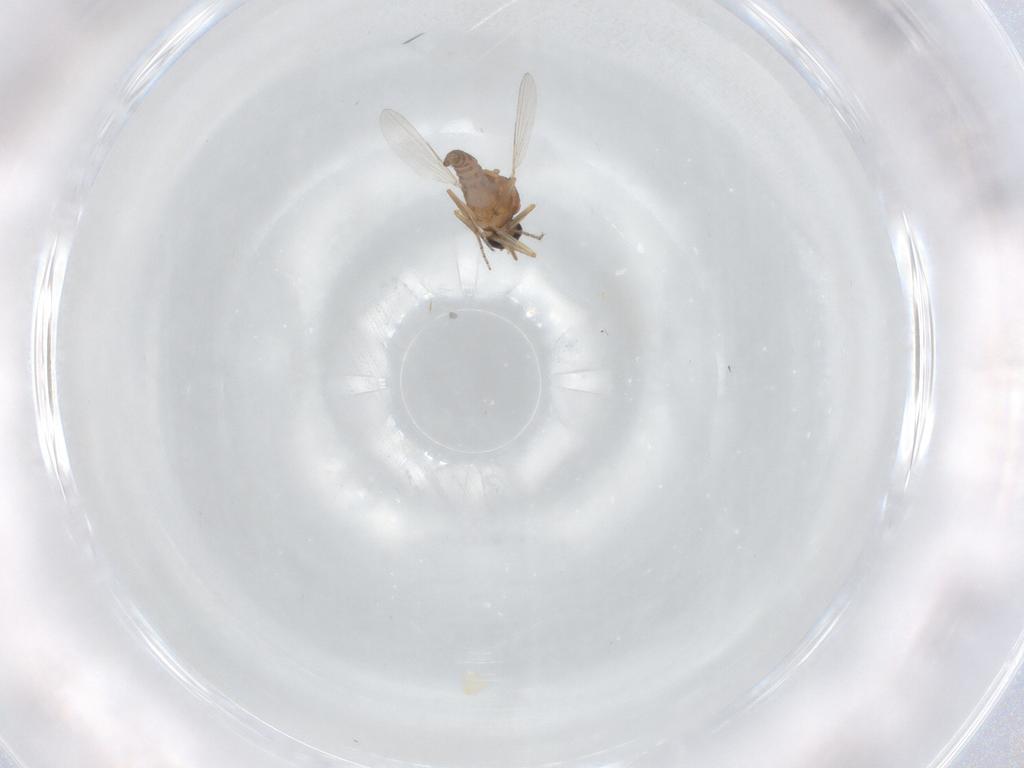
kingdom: Animalia
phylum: Arthropoda
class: Insecta
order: Diptera
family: Ceratopogonidae
